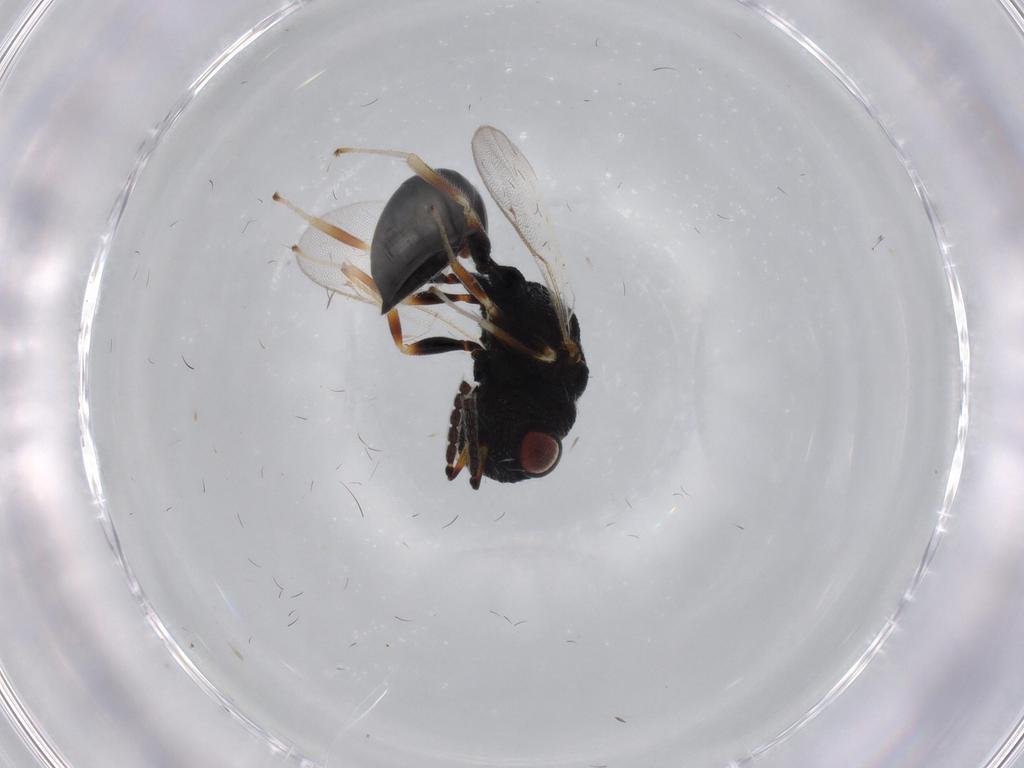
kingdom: Animalia
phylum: Arthropoda
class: Insecta
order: Hymenoptera
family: Eurytomidae
